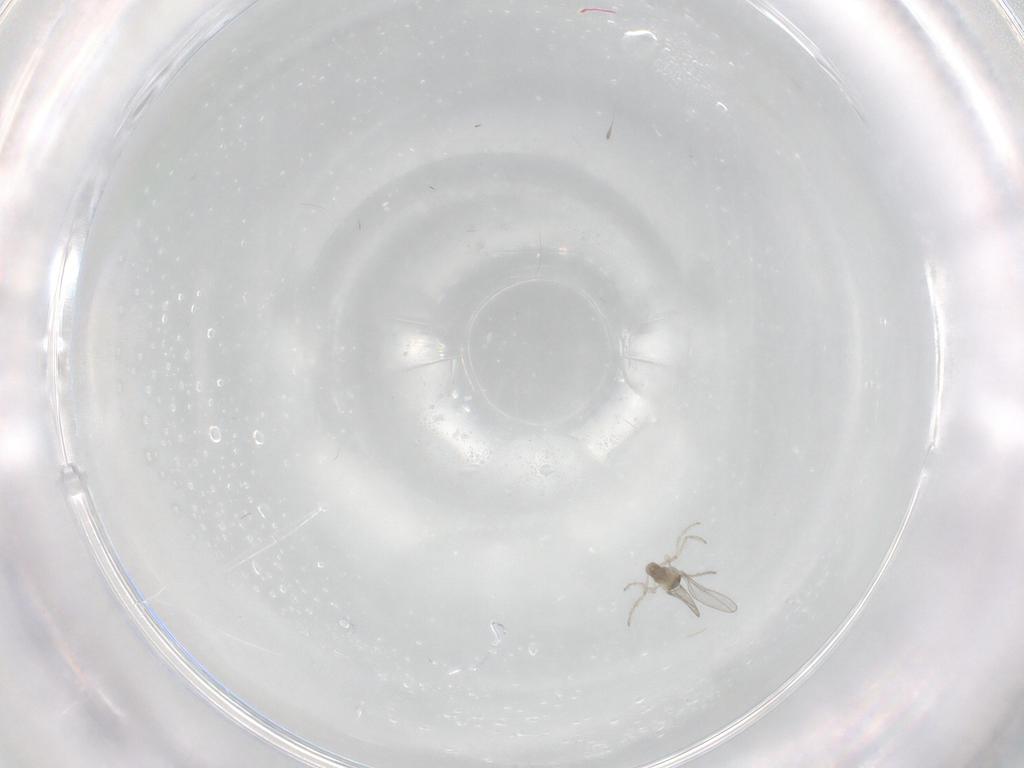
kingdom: Animalia
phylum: Arthropoda
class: Insecta
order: Diptera
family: Cecidomyiidae
